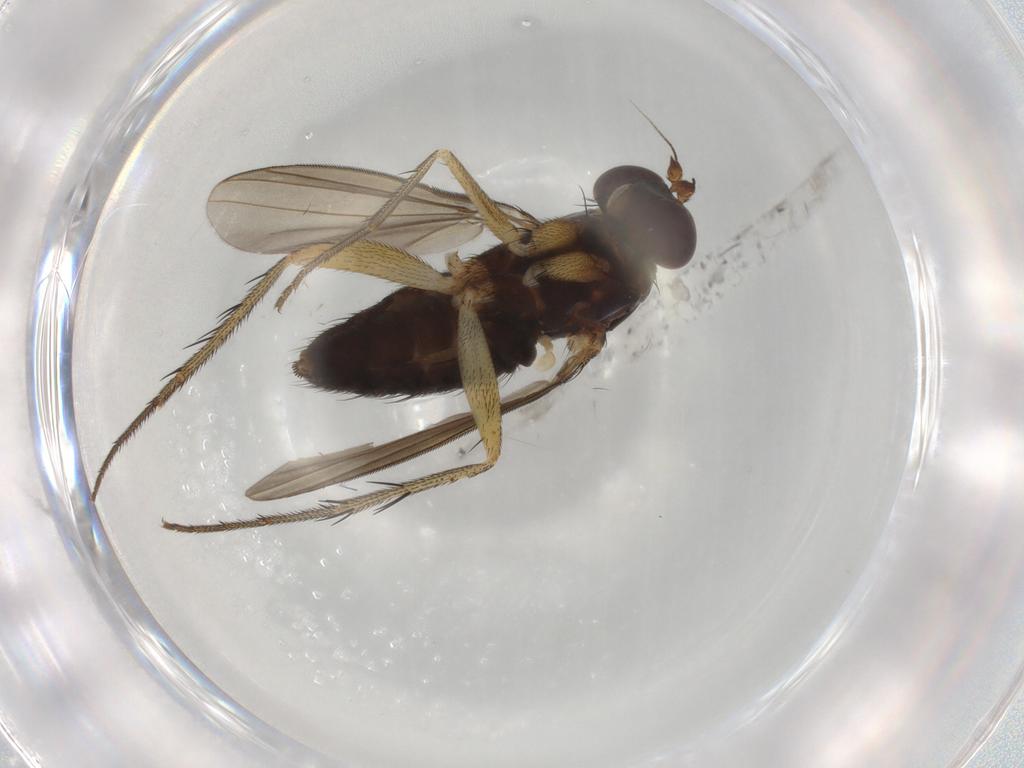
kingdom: Animalia
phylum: Arthropoda
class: Insecta
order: Diptera
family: Dolichopodidae
